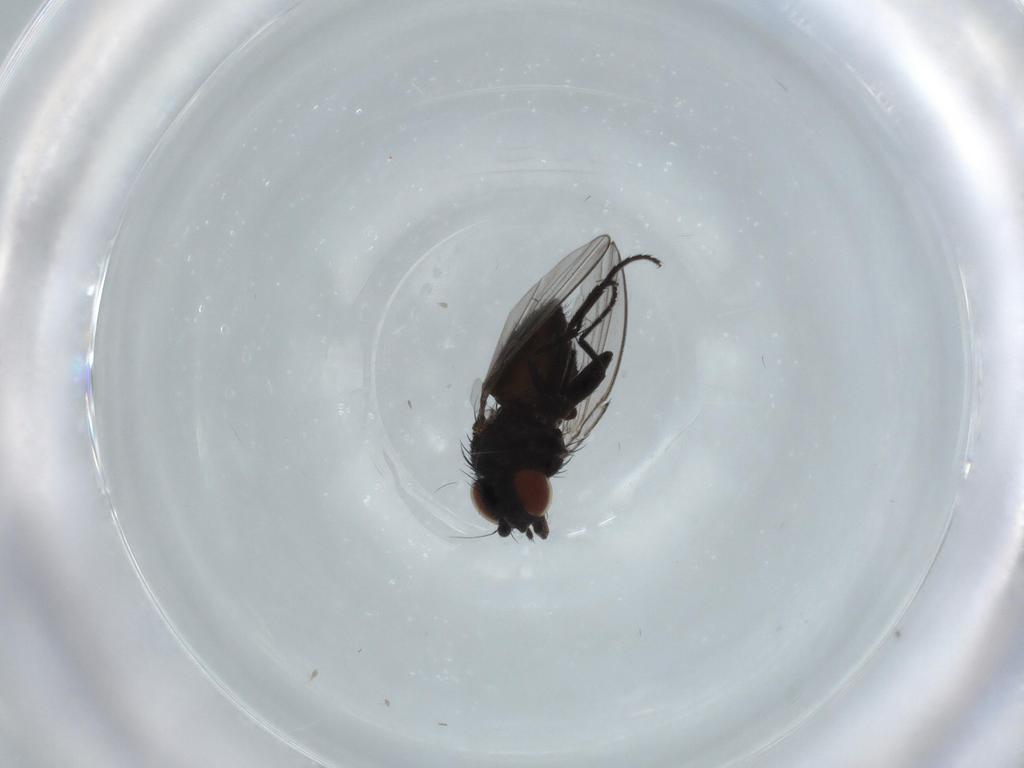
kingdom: Animalia
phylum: Arthropoda
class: Insecta
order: Diptera
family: Milichiidae
